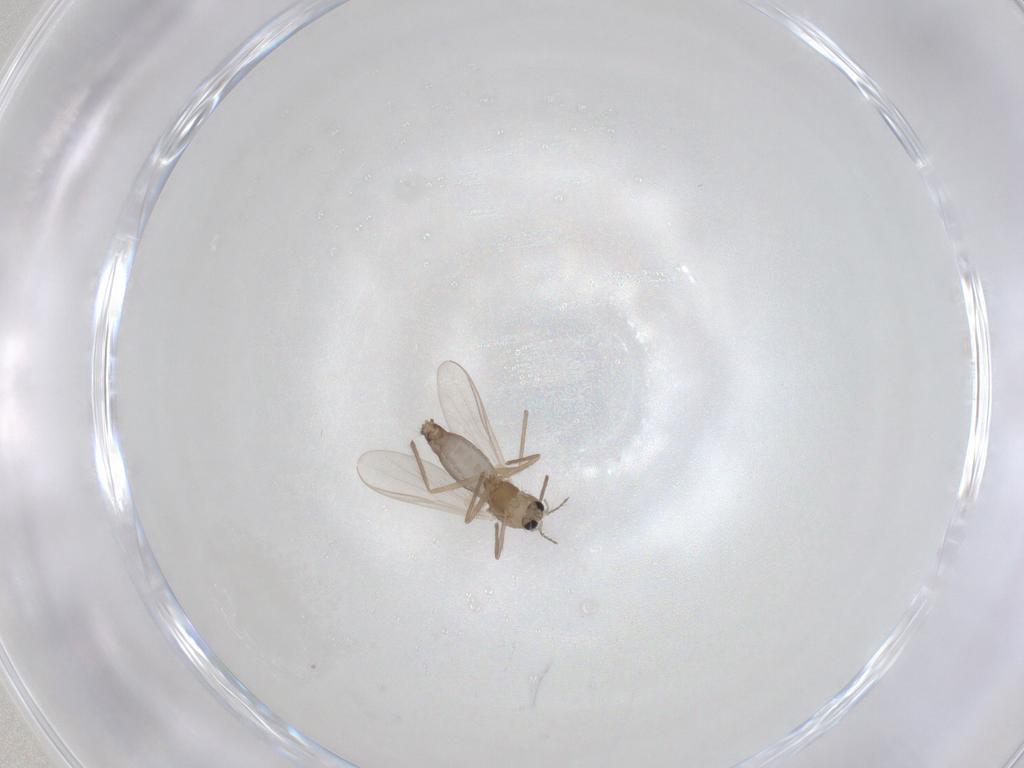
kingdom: Animalia
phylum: Arthropoda
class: Insecta
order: Diptera
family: Chironomidae
